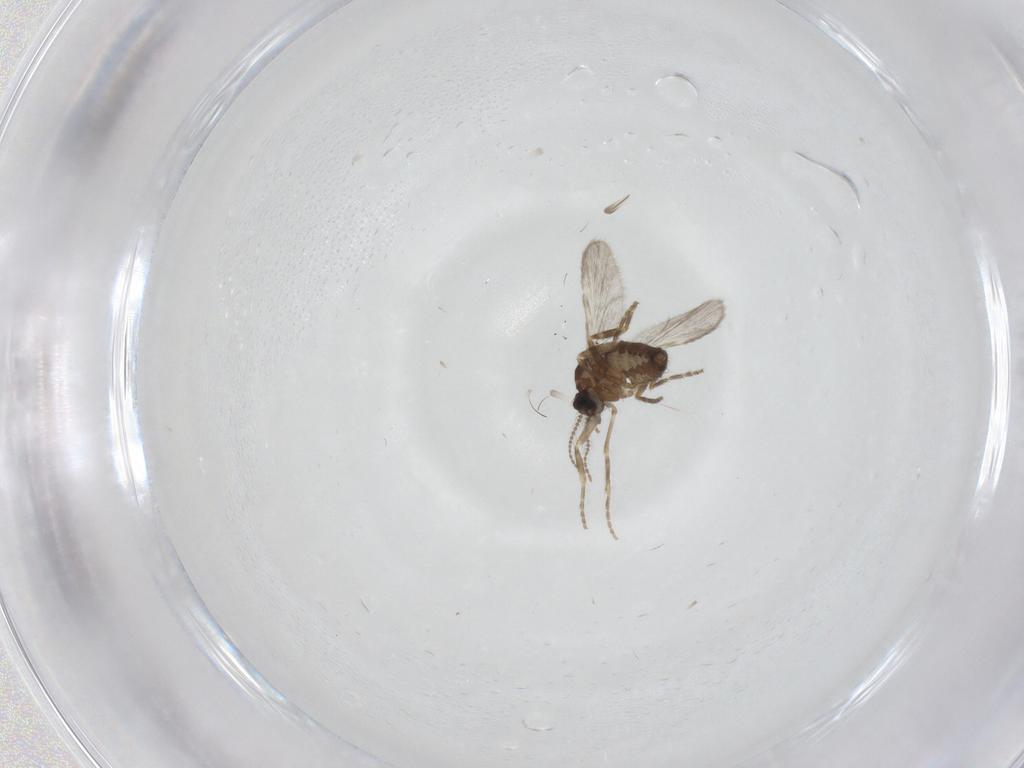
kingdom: Animalia
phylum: Arthropoda
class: Insecta
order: Diptera
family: Ceratopogonidae
